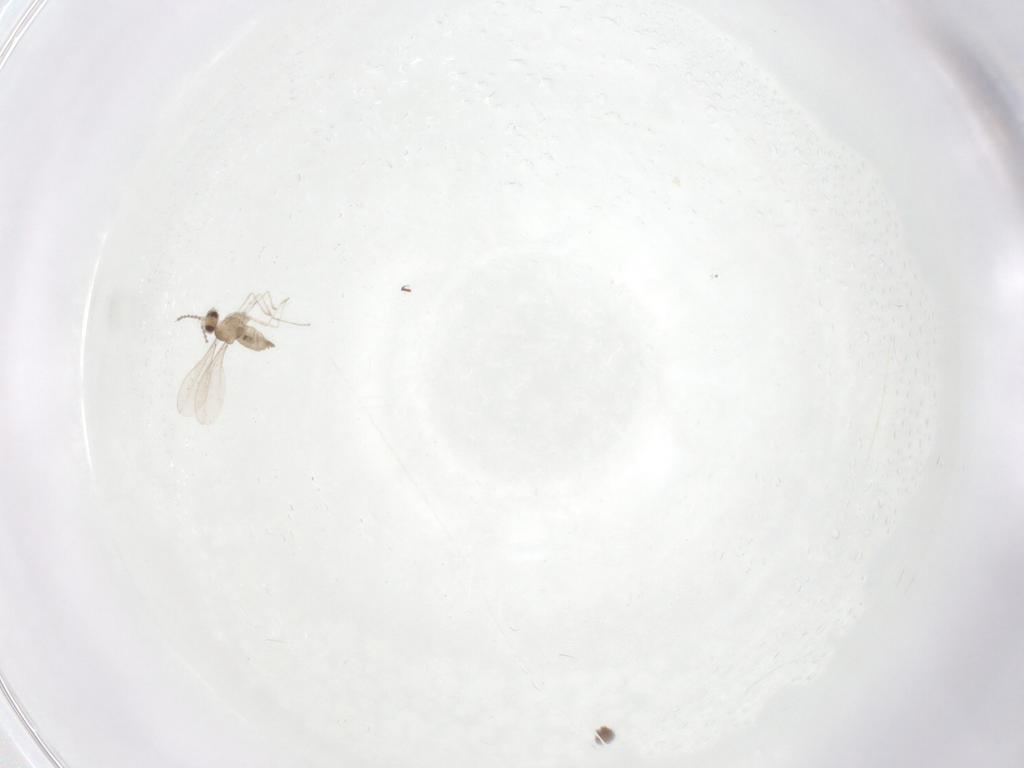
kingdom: Animalia
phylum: Arthropoda
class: Insecta
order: Diptera
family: Cecidomyiidae
